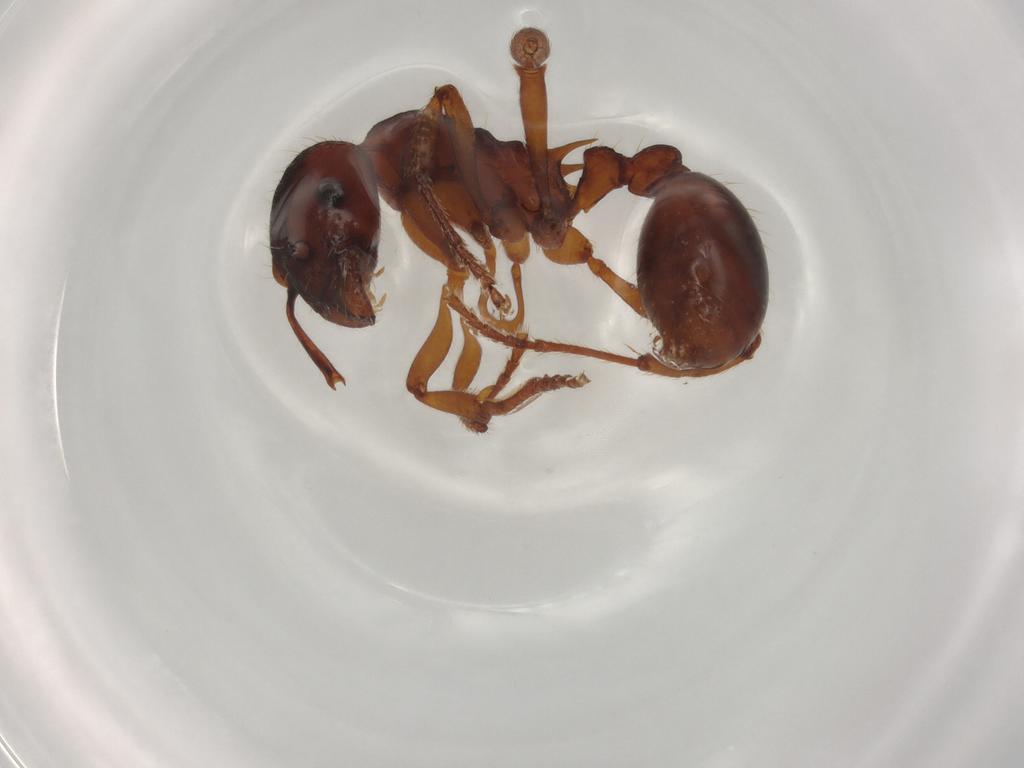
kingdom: Animalia
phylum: Arthropoda
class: Insecta
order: Hymenoptera
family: Formicidae
